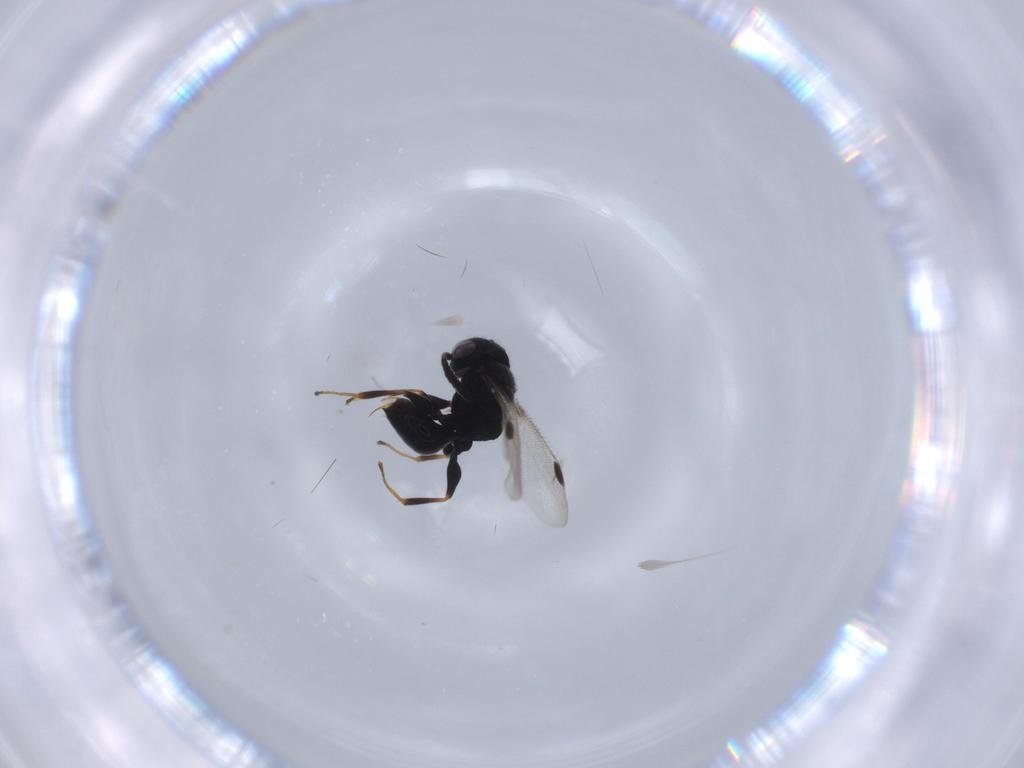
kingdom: Animalia
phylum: Arthropoda
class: Insecta
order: Hymenoptera
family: Dryinidae
